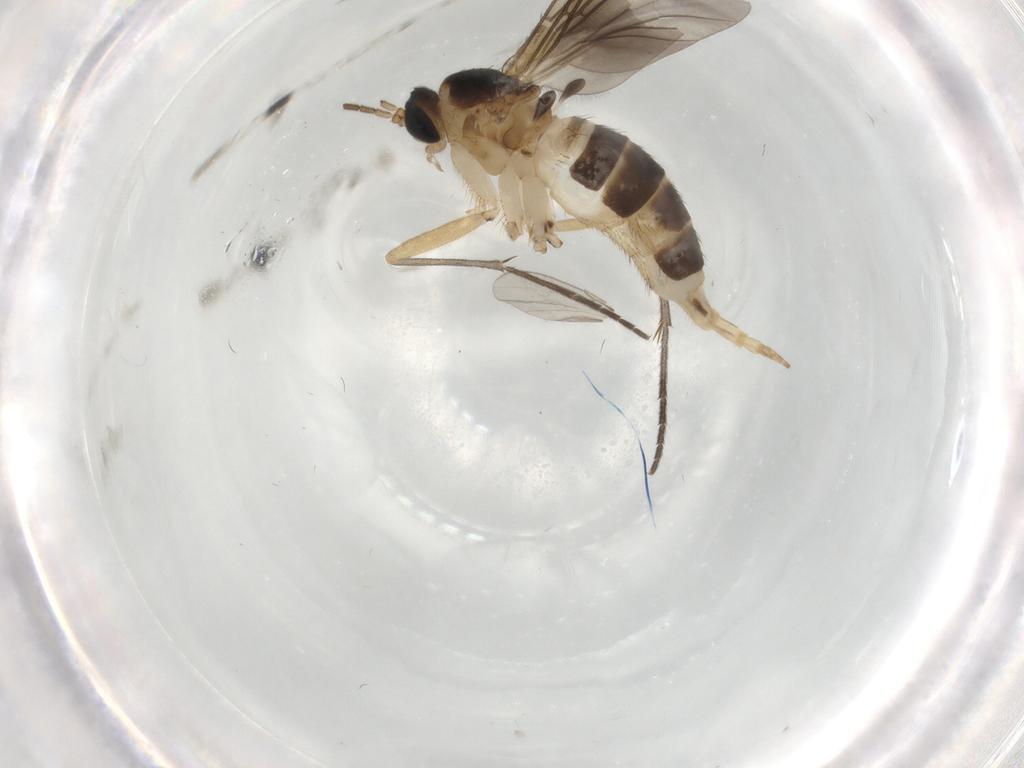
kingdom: Animalia
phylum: Arthropoda
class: Insecta
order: Diptera
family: Sciaridae
